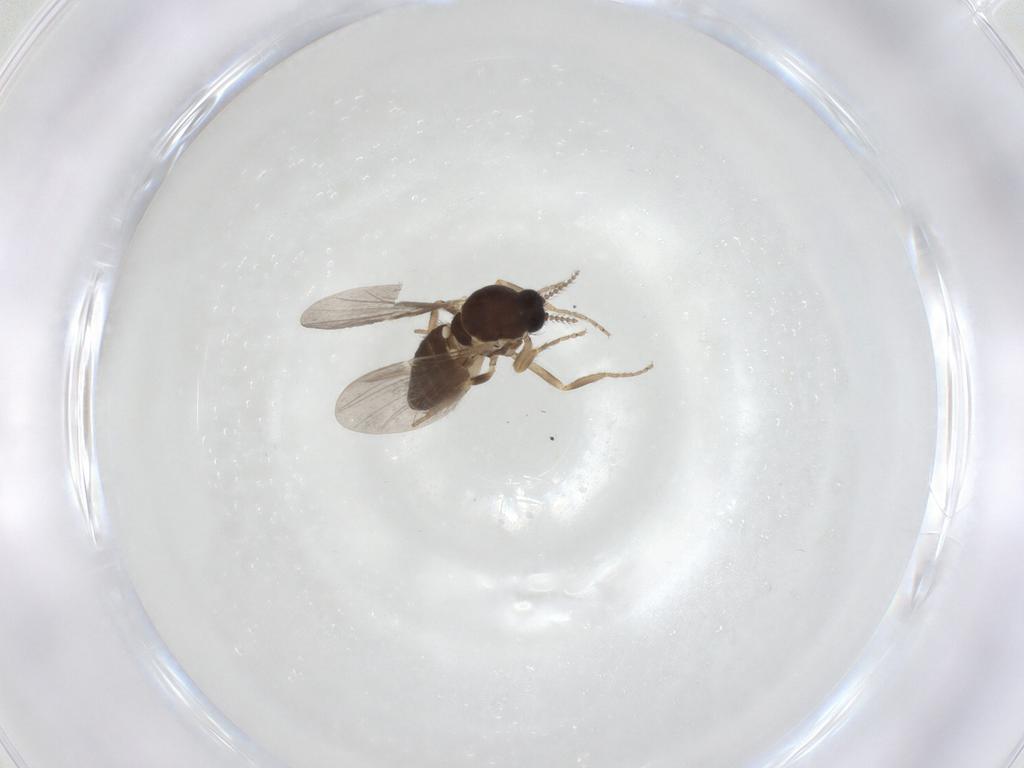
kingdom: Animalia
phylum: Arthropoda
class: Insecta
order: Diptera
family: Ceratopogonidae
